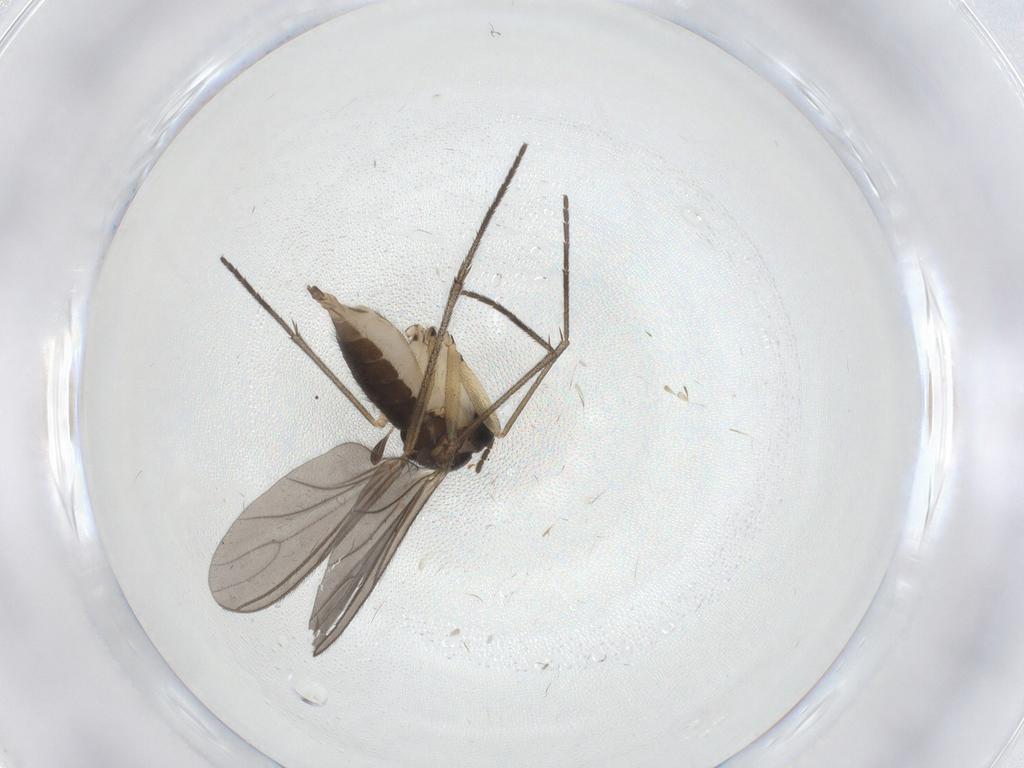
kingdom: Animalia
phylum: Arthropoda
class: Insecta
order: Diptera
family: Sciaridae
